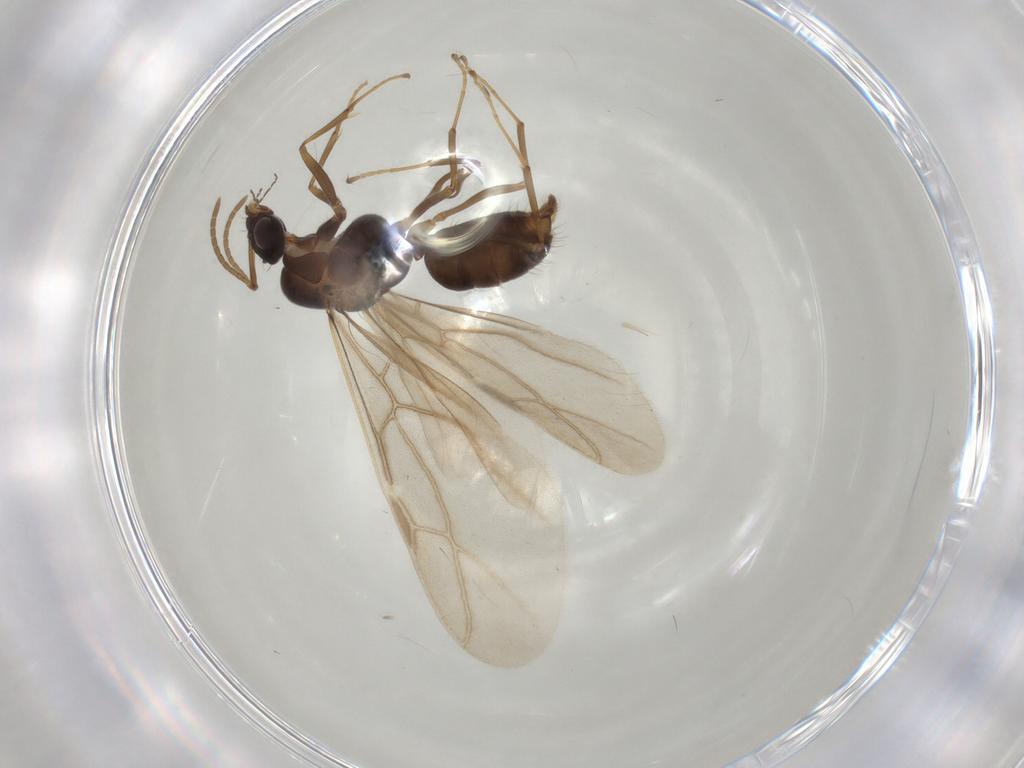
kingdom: Animalia
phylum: Arthropoda
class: Insecta
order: Hymenoptera
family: Formicidae
